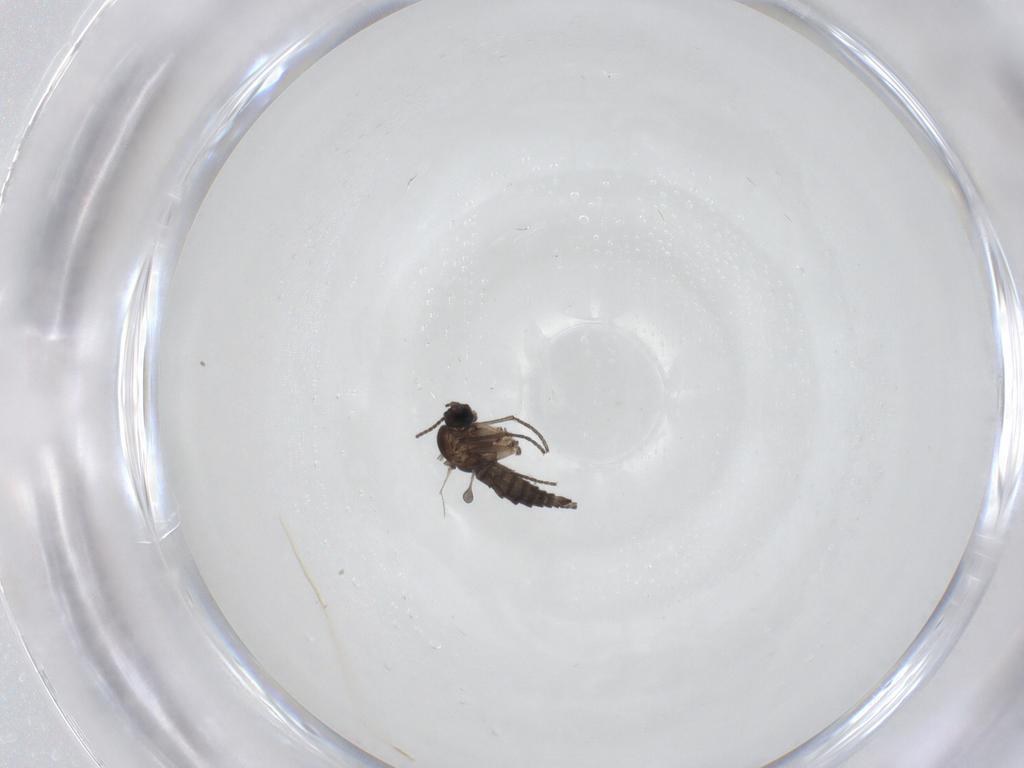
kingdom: Animalia
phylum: Arthropoda
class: Insecta
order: Diptera
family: Sciaridae
